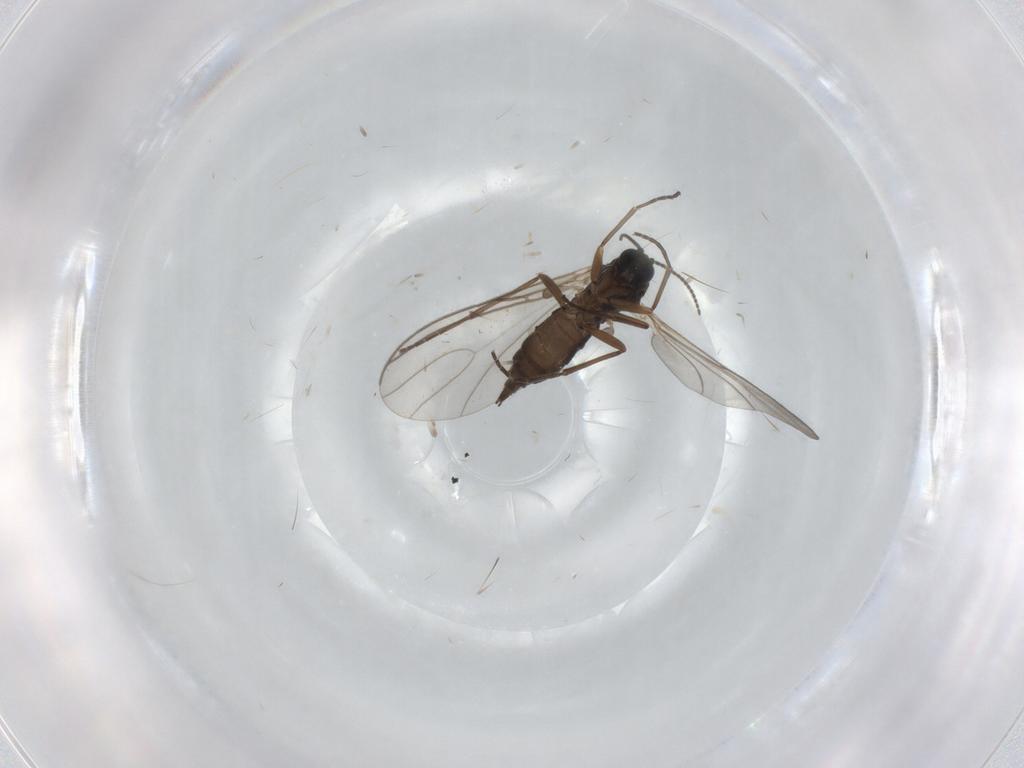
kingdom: Animalia
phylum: Arthropoda
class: Insecta
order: Diptera
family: Sciaridae
